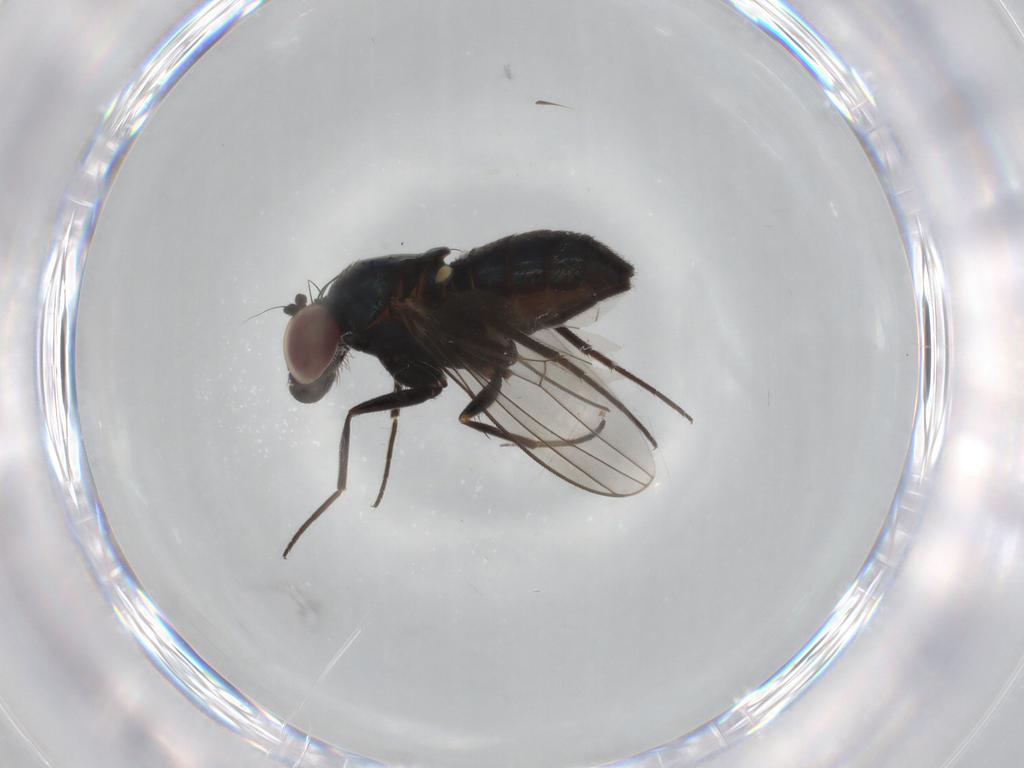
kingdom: Animalia
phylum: Arthropoda
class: Insecta
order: Diptera
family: Dolichopodidae
